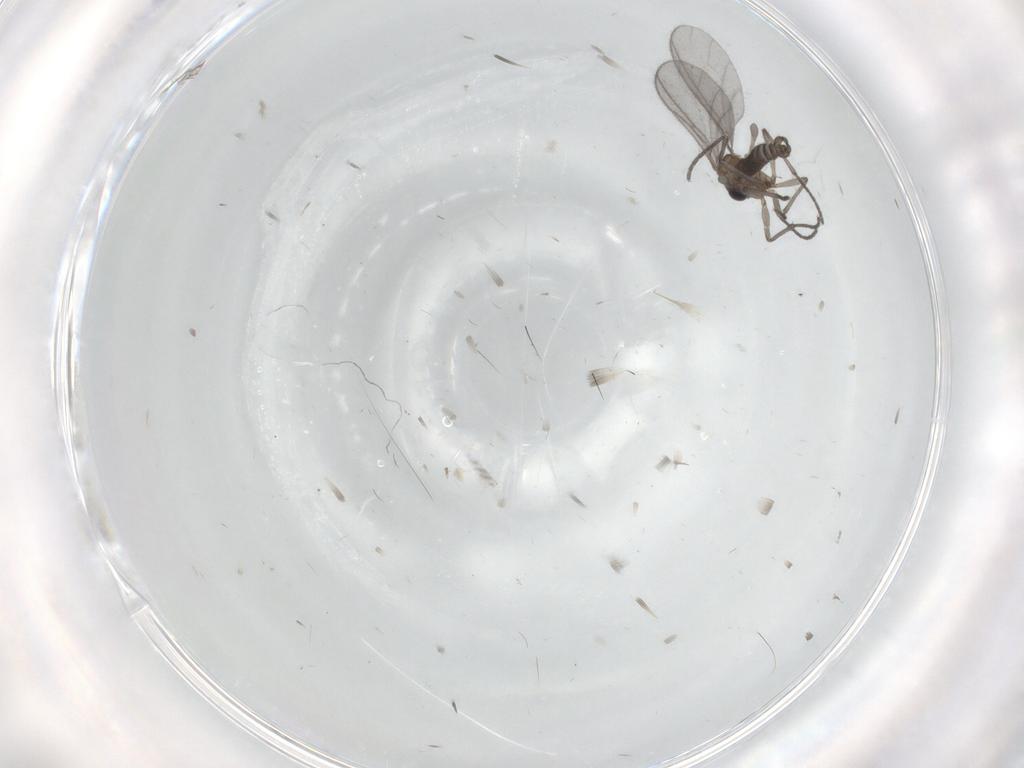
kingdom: Animalia
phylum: Arthropoda
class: Insecta
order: Diptera
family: Sciaridae
